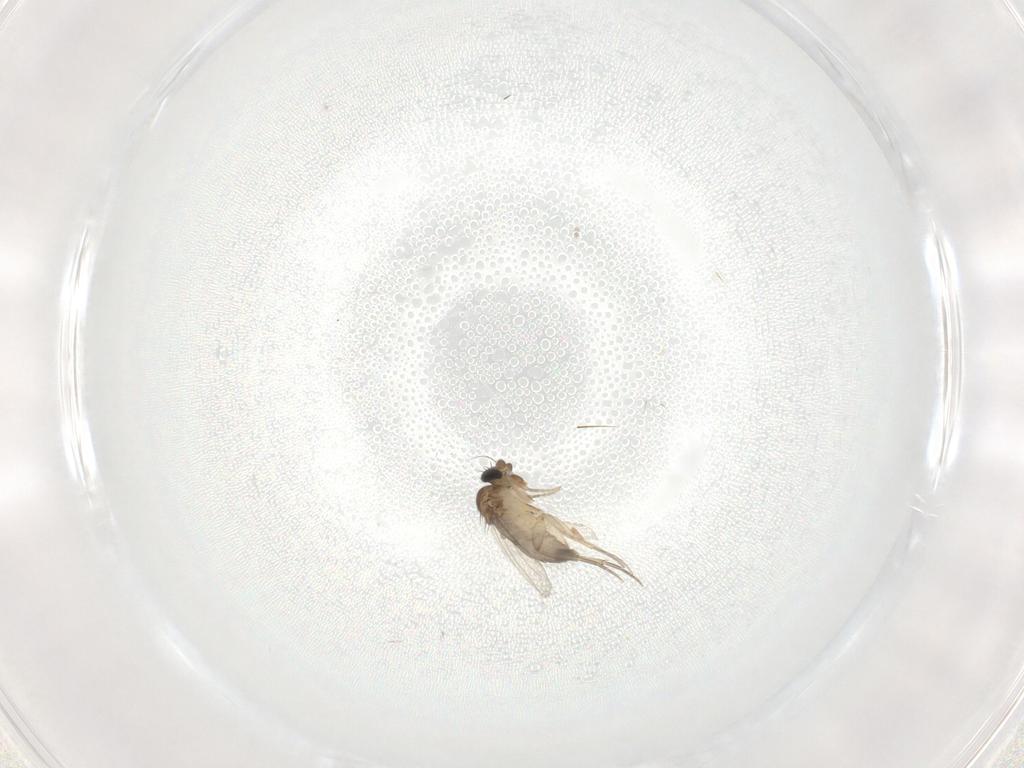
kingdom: Animalia
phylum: Arthropoda
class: Insecta
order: Diptera
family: Phoridae
